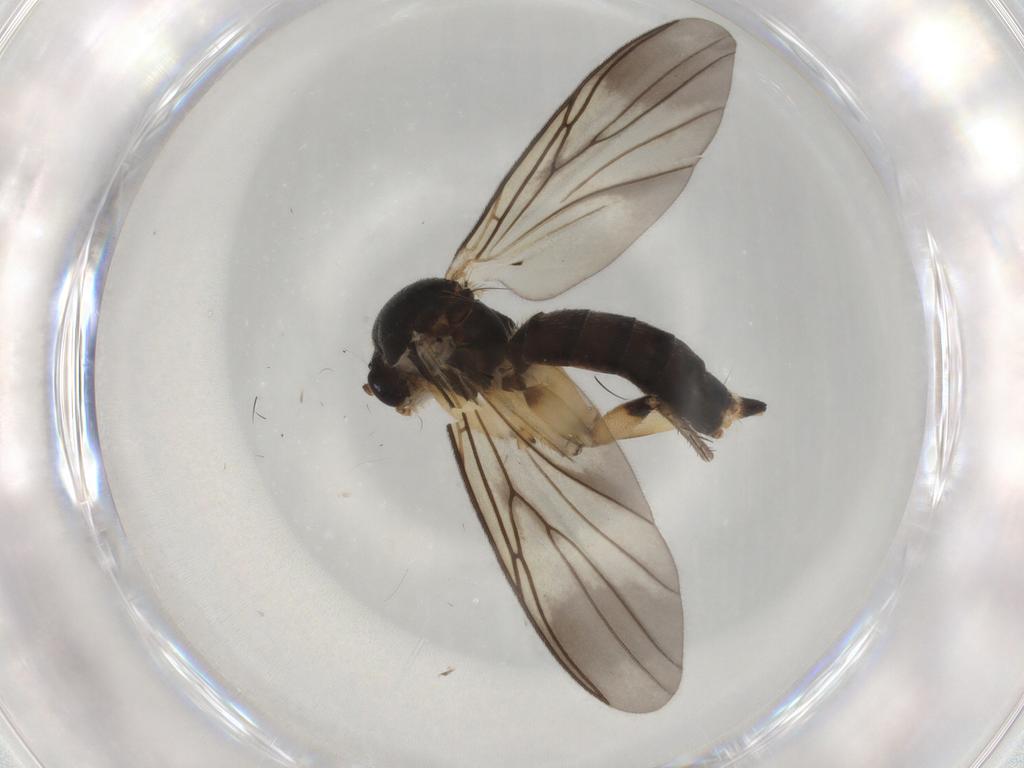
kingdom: Animalia
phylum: Arthropoda
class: Insecta
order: Diptera
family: Mycetophilidae
